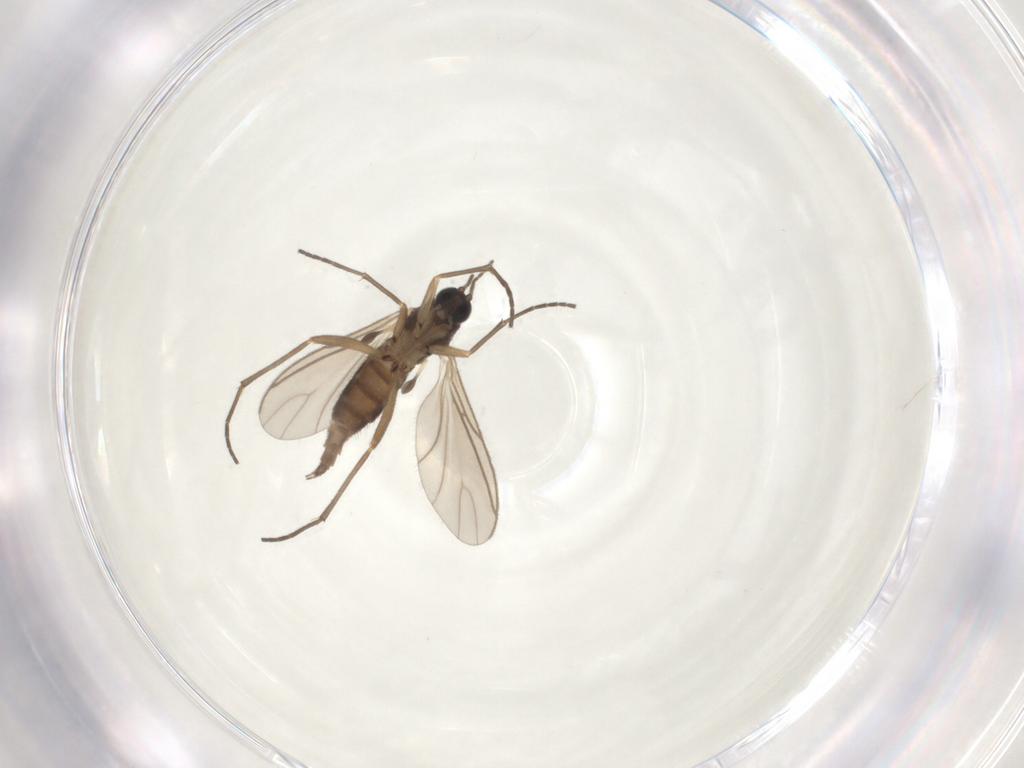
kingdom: Animalia
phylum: Arthropoda
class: Insecta
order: Diptera
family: Sciaridae
